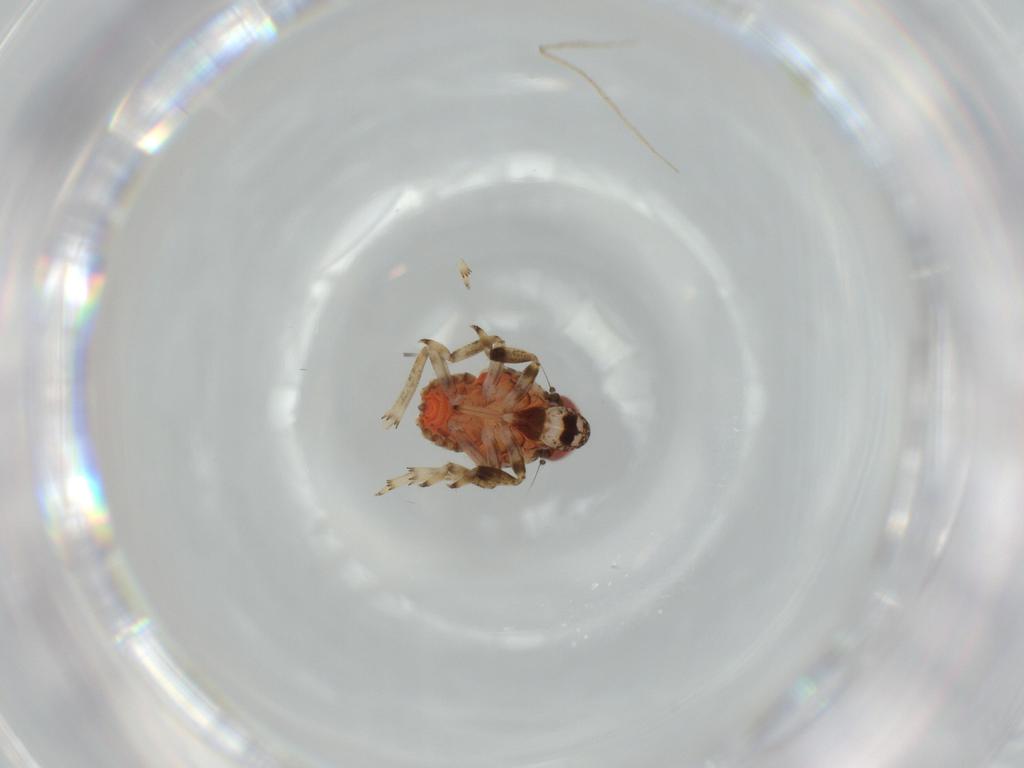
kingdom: Animalia
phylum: Arthropoda
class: Insecta
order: Hemiptera
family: Issidae
